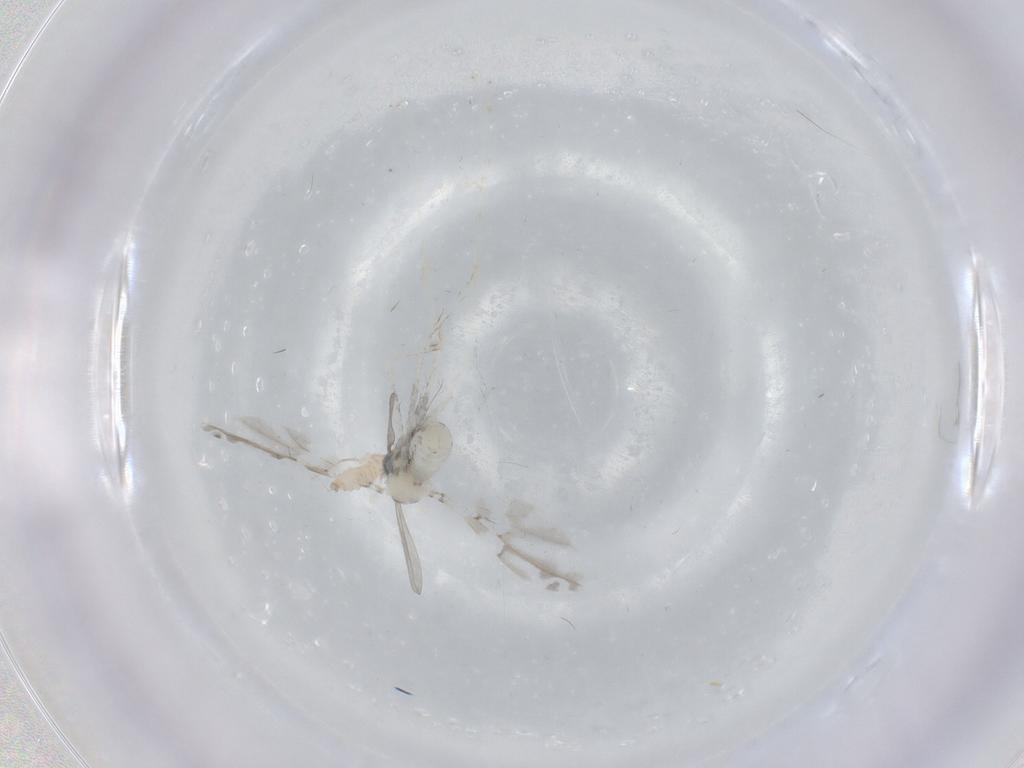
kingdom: Animalia
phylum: Arthropoda
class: Insecta
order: Diptera
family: Cecidomyiidae
